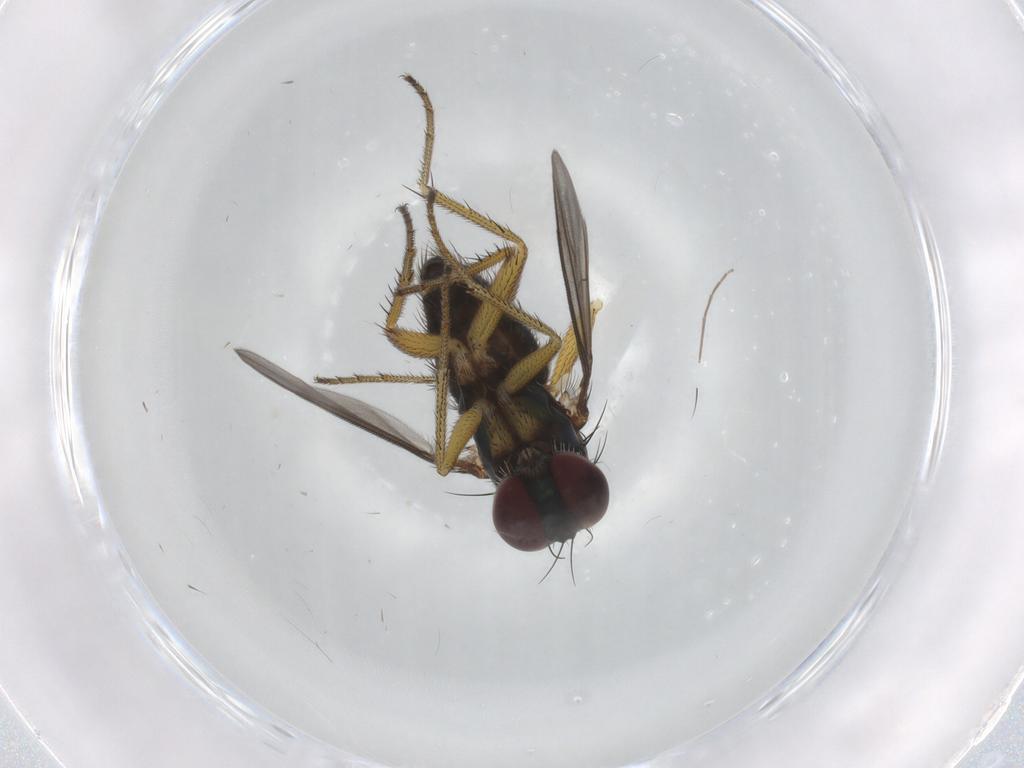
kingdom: Animalia
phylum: Arthropoda
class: Insecta
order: Diptera
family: Dolichopodidae
